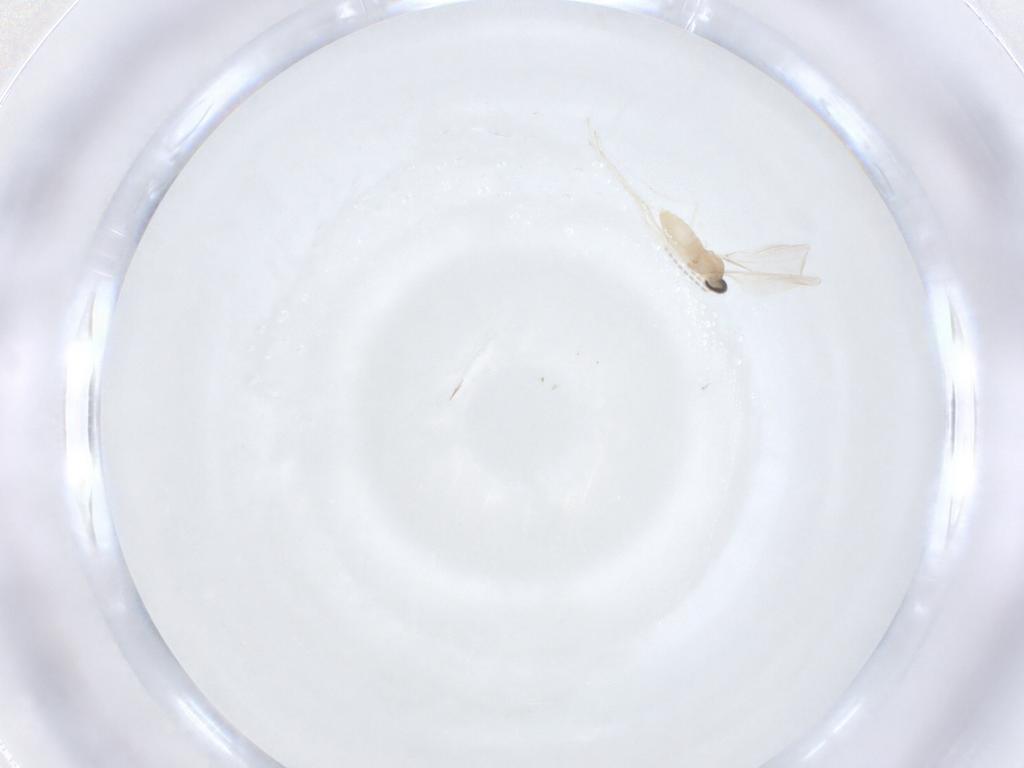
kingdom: Animalia
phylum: Arthropoda
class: Insecta
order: Diptera
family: Cecidomyiidae
